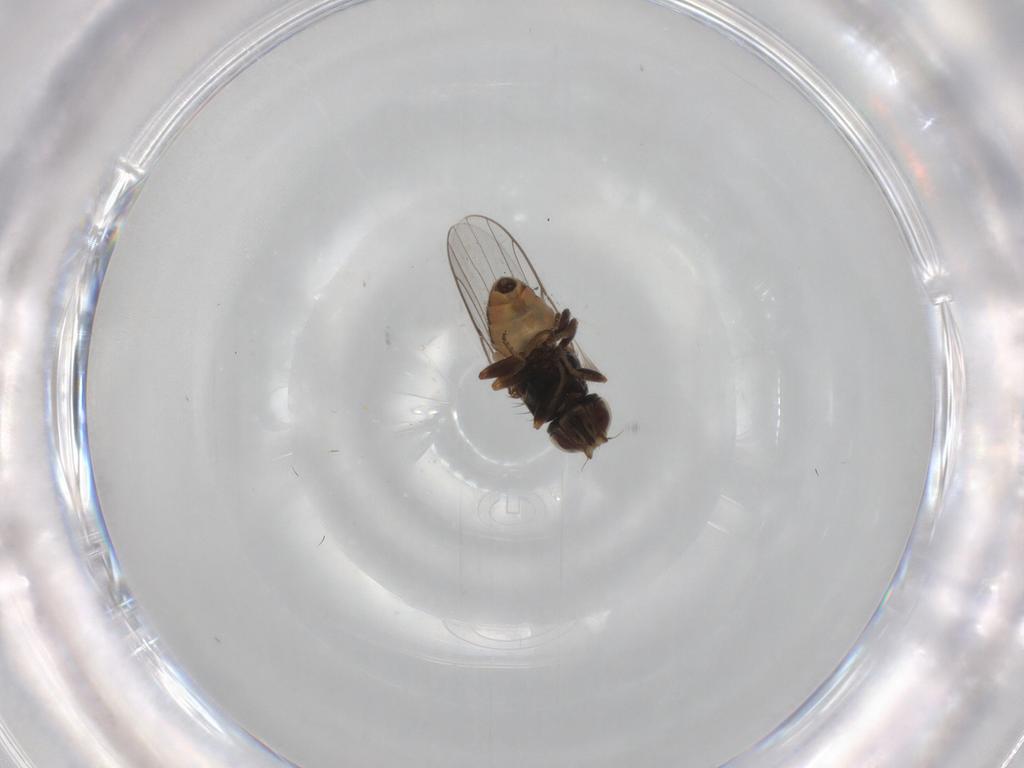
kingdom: Animalia
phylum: Arthropoda
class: Insecta
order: Diptera
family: Chloropidae
